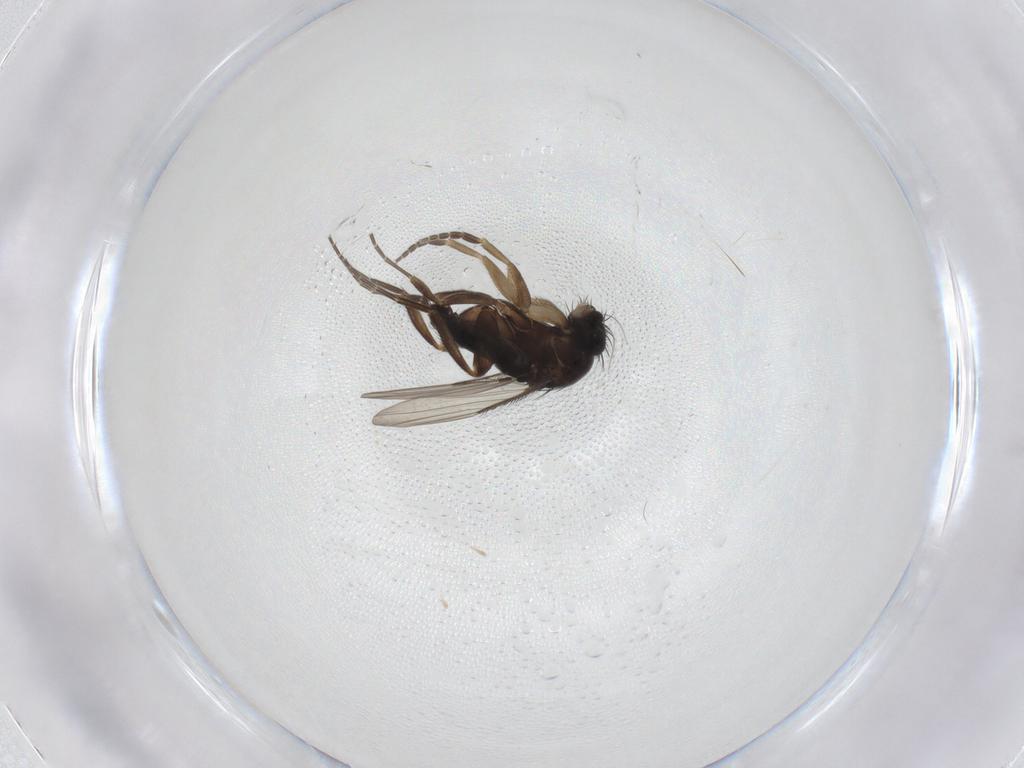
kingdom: Animalia
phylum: Arthropoda
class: Insecta
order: Diptera
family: Phoridae
